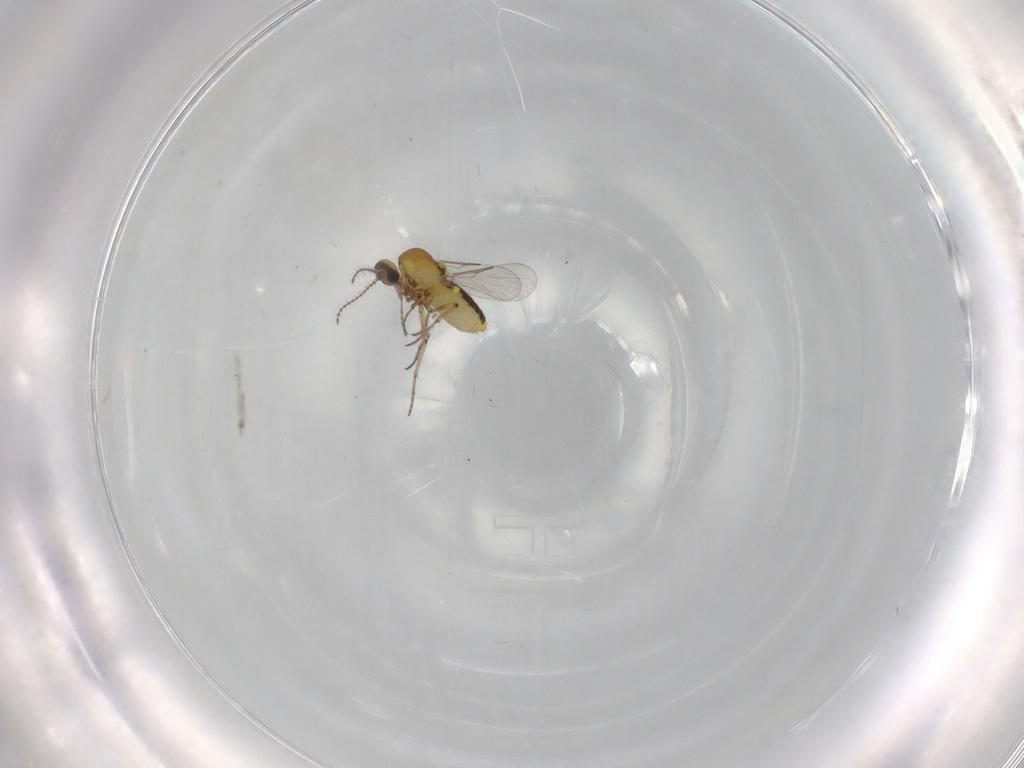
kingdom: Animalia
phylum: Arthropoda
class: Insecta
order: Diptera
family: Ceratopogonidae
